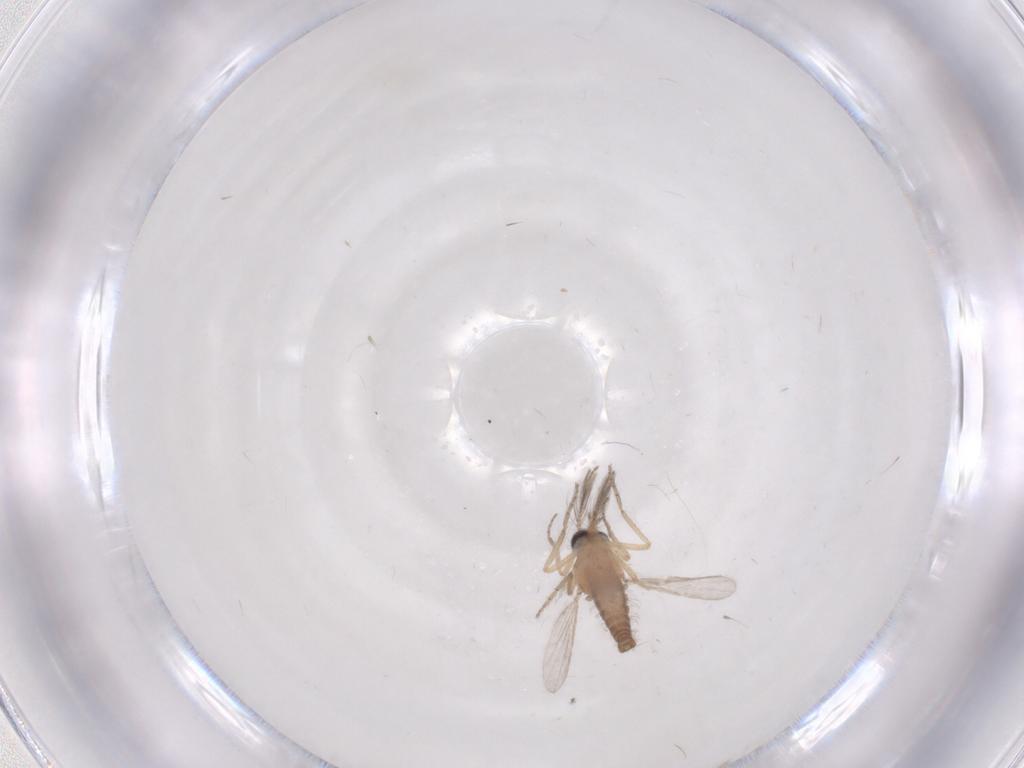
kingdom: Animalia
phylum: Arthropoda
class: Insecta
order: Diptera
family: Ceratopogonidae
